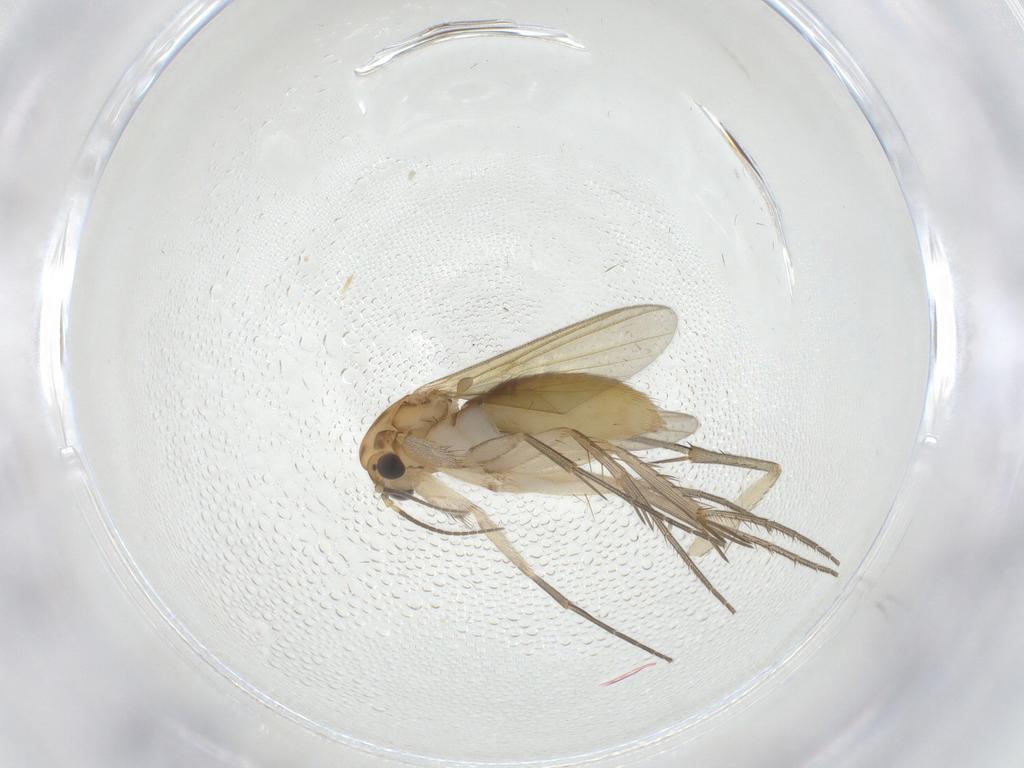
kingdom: Animalia
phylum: Arthropoda
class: Insecta
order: Diptera
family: Mycetophilidae
